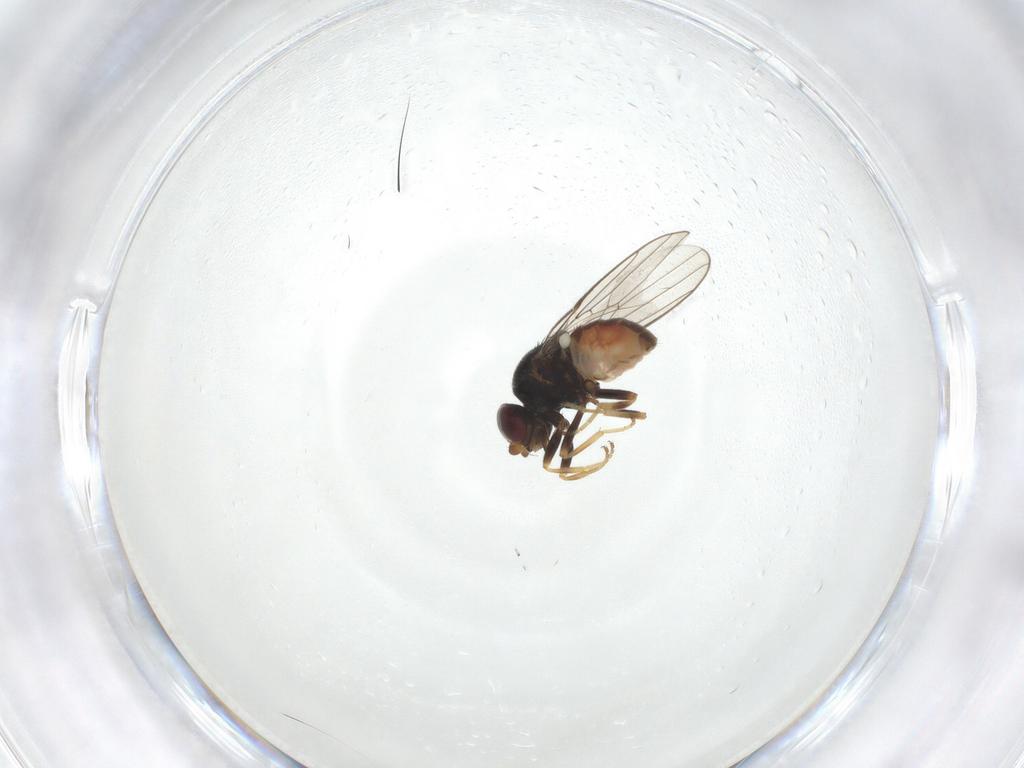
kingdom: Animalia
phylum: Arthropoda
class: Insecta
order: Diptera
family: Chloropidae
